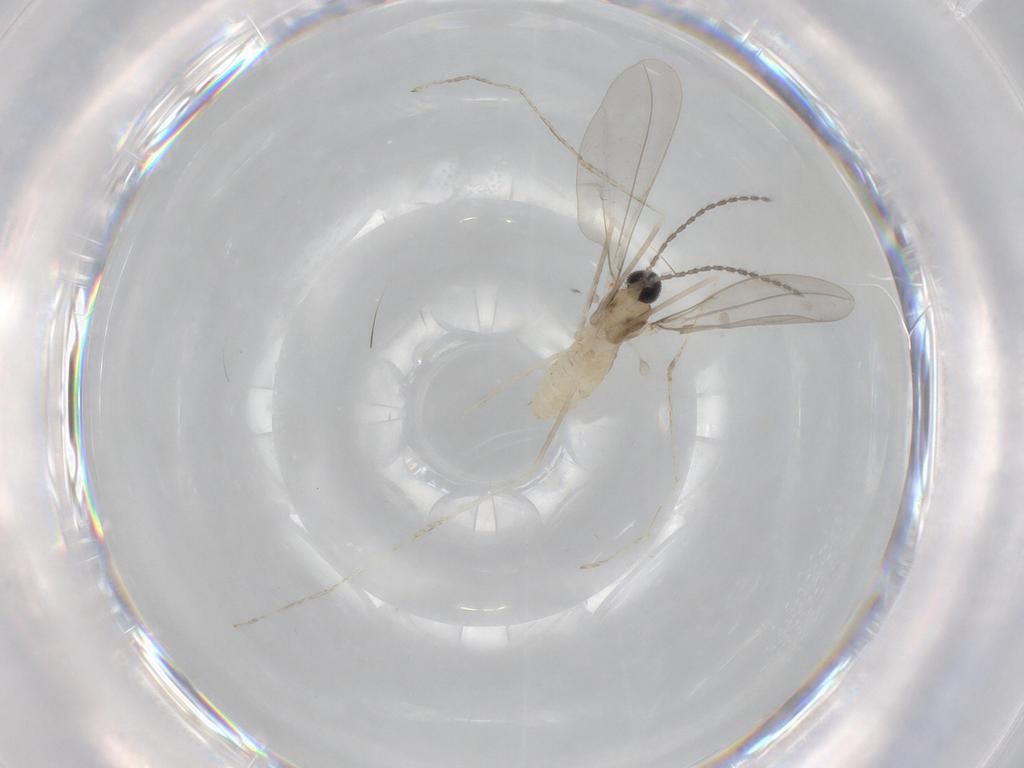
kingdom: Animalia
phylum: Arthropoda
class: Insecta
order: Diptera
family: Cecidomyiidae
